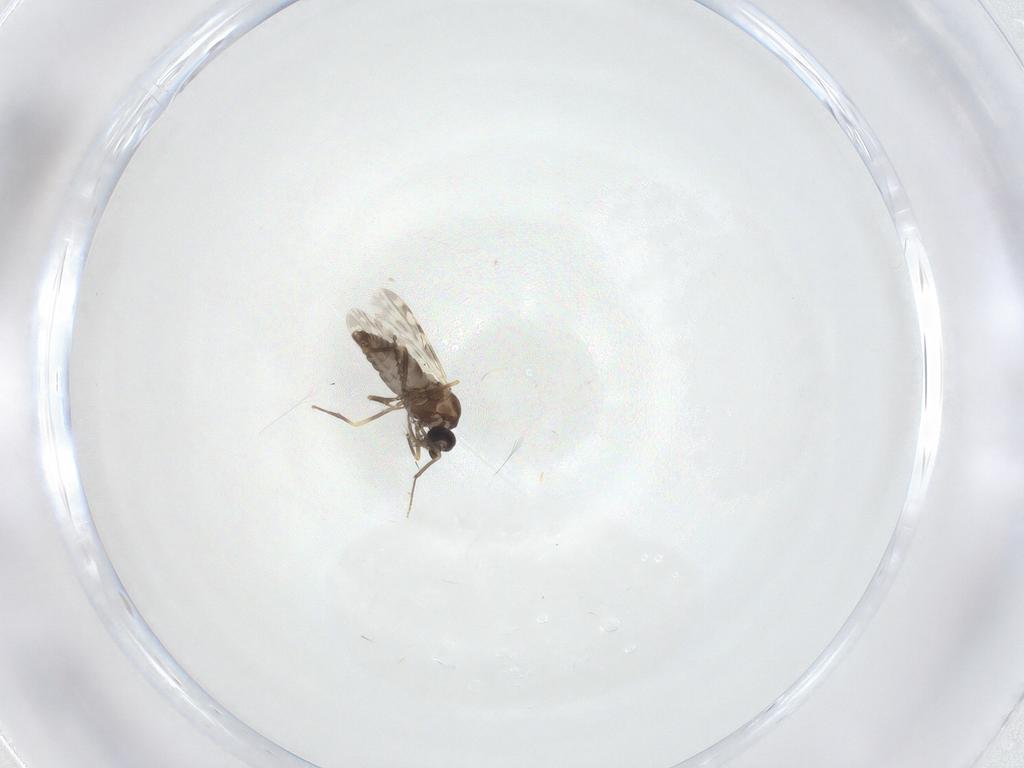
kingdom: Animalia
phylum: Arthropoda
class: Insecta
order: Diptera
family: Ceratopogonidae
